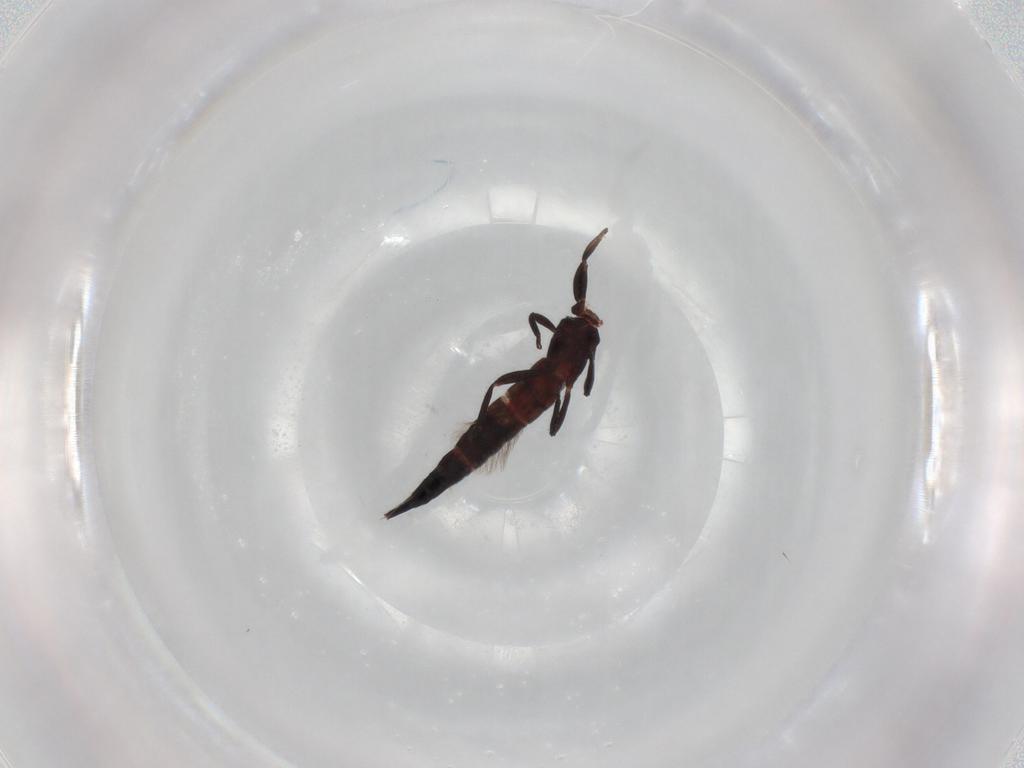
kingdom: Animalia
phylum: Arthropoda
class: Insecta
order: Thysanoptera
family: Phlaeothripidae
